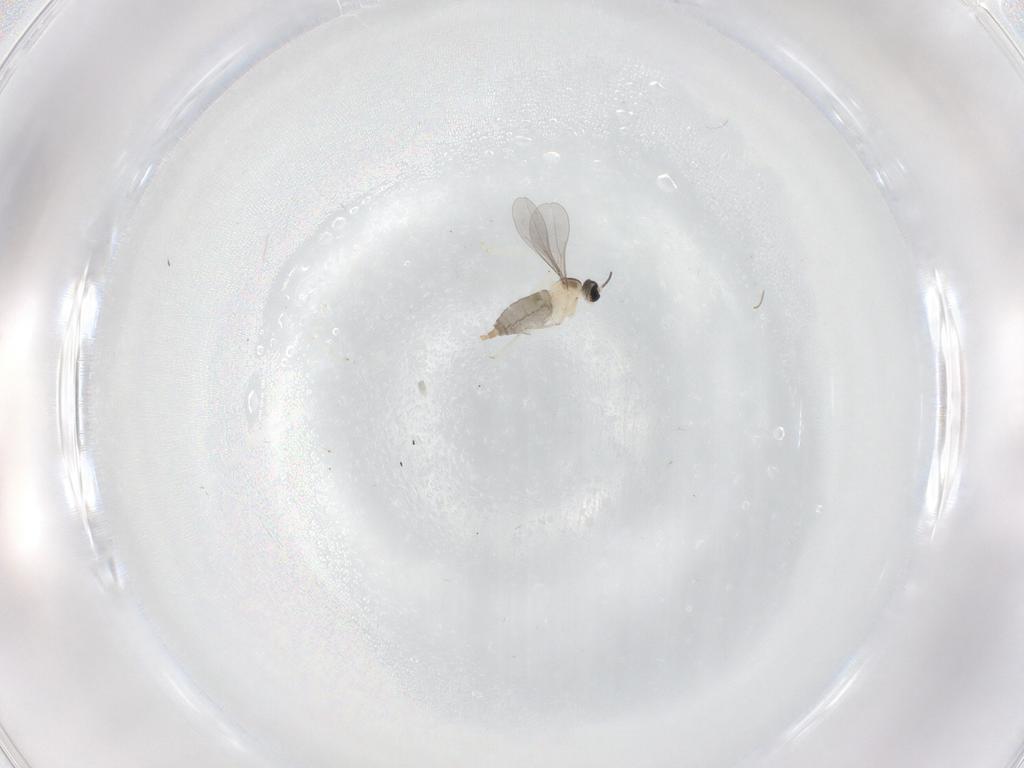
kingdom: Animalia
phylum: Arthropoda
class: Insecta
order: Diptera
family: Cecidomyiidae
